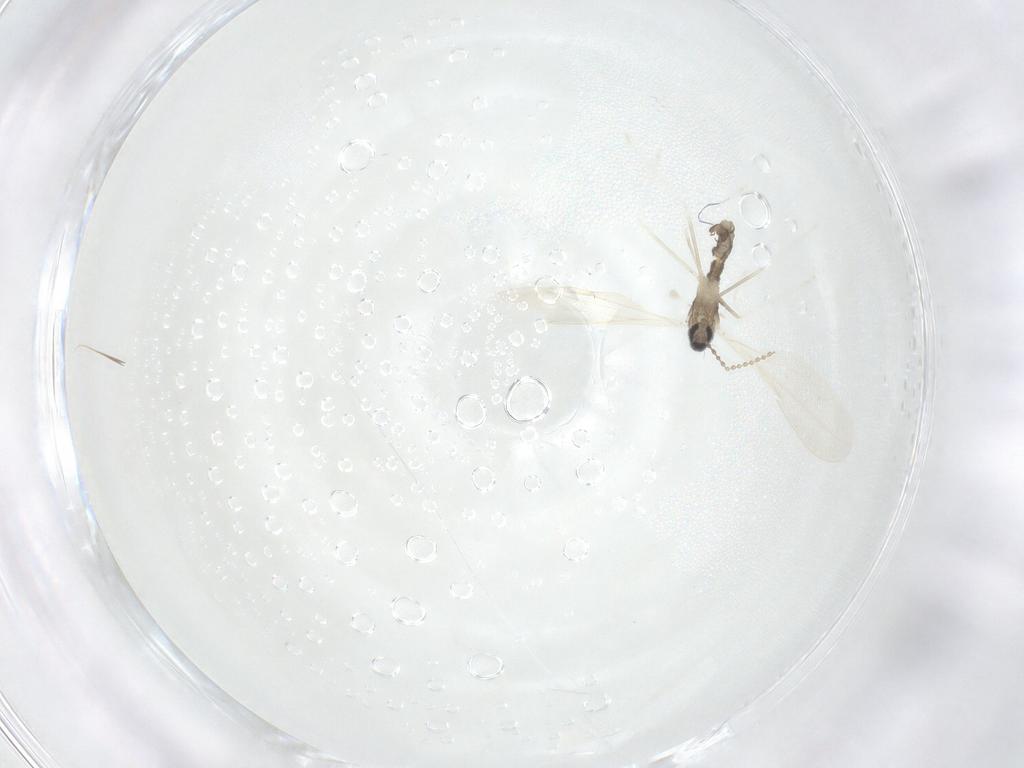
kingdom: Animalia
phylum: Arthropoda
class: Insecta
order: Diptera
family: Cecidomyiidae
